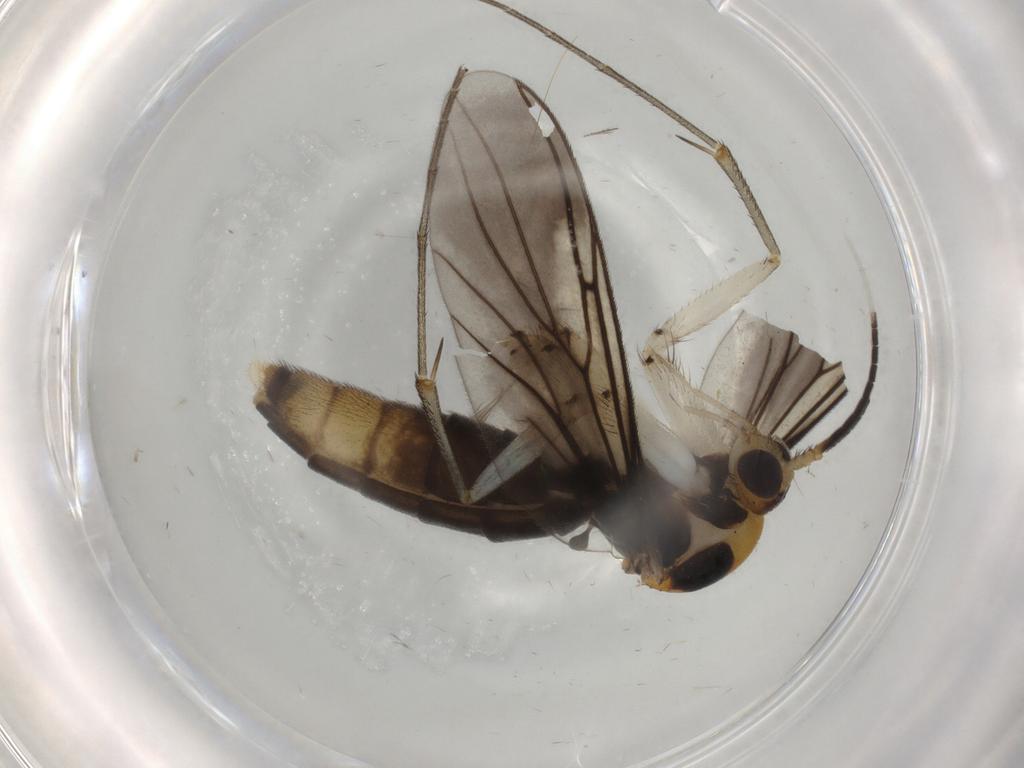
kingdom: Animalia
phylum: Arthropoda
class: Insecta
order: Diptera
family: Chironomidae
